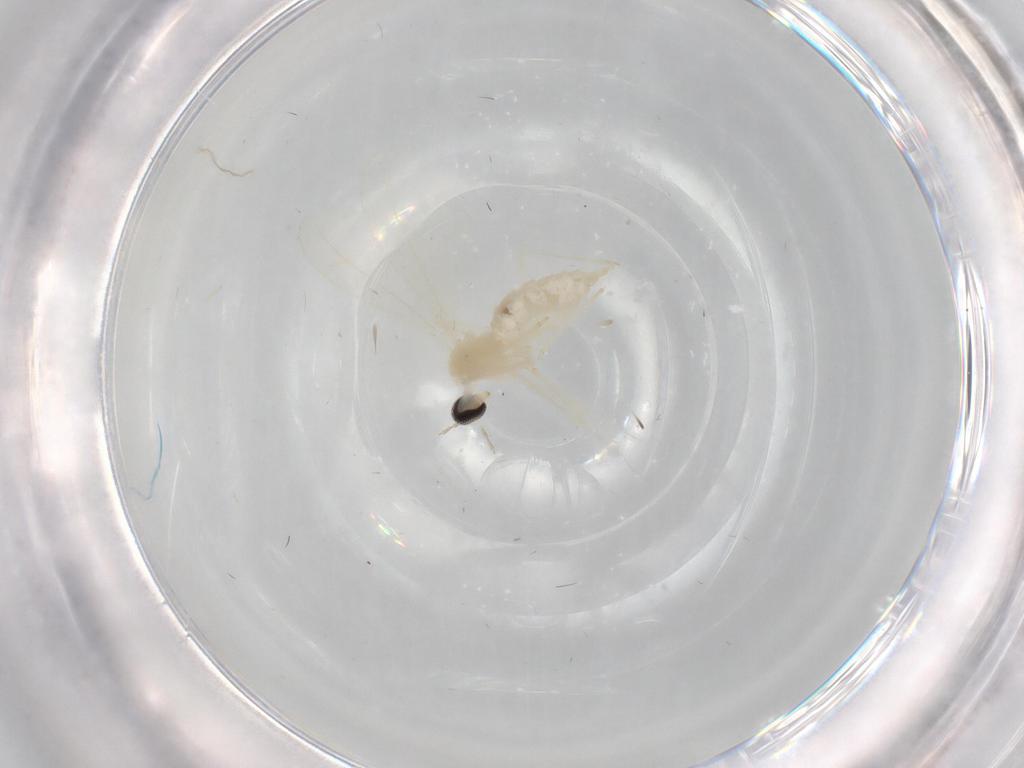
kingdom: Animalia
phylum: Arthropoda
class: Insecta
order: Diptera
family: Cecidomyiidae
